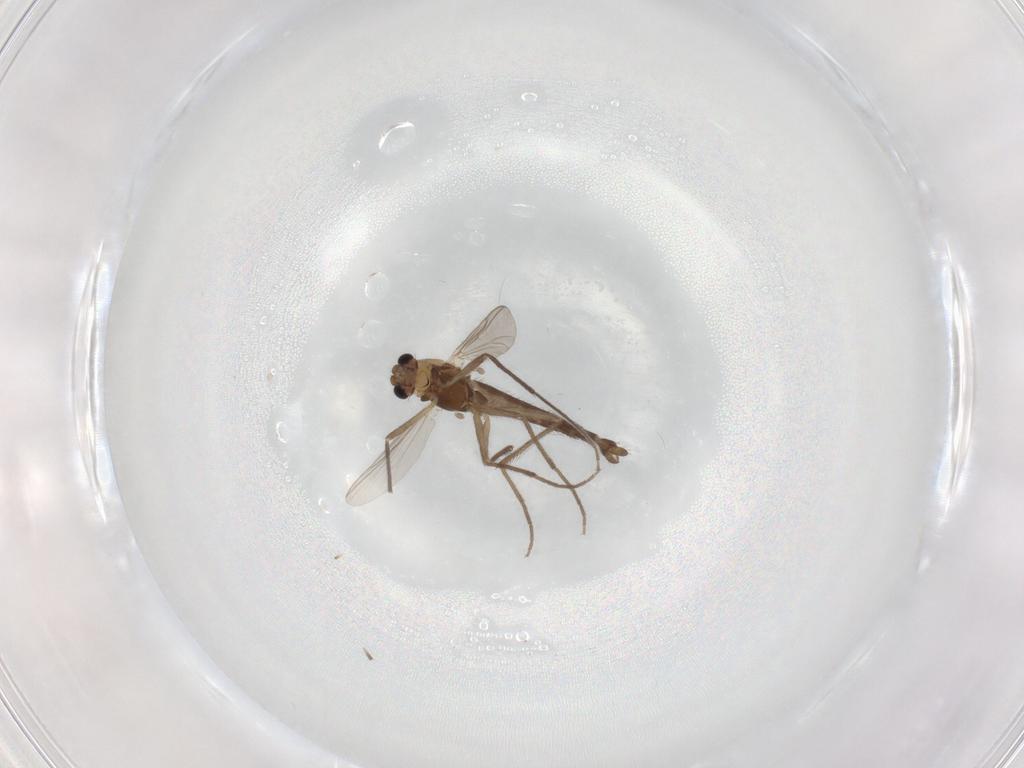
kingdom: Animalia
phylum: Arthropoda
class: Insecta
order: Diptera
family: Chironomidae
